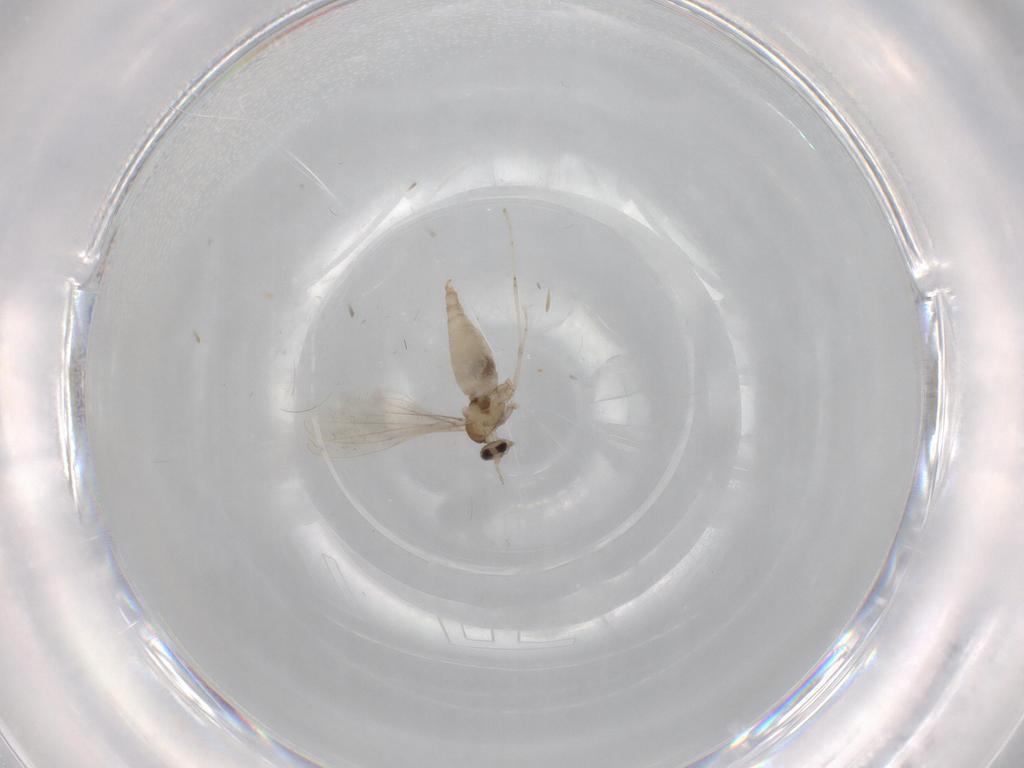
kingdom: Animalia
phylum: Arthropoda
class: Insecta
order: Diptera
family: Cecidomyiidae
